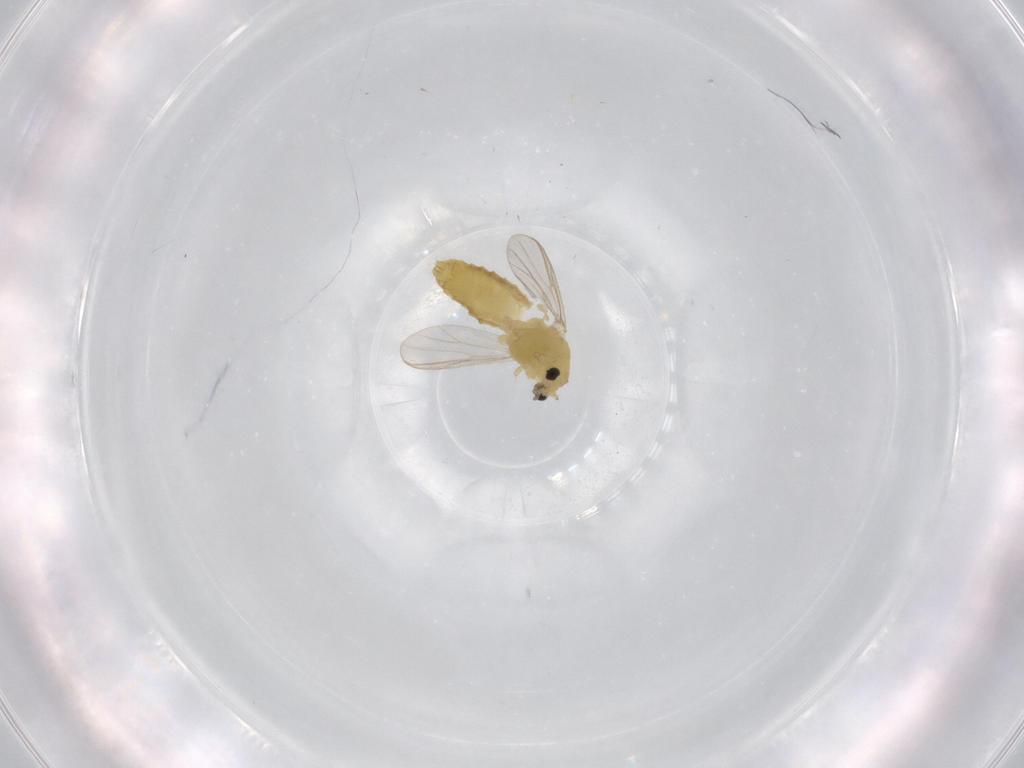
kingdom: Animalia
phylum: Arthropoda
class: Insecta
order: Diptera
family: Chironomidae
